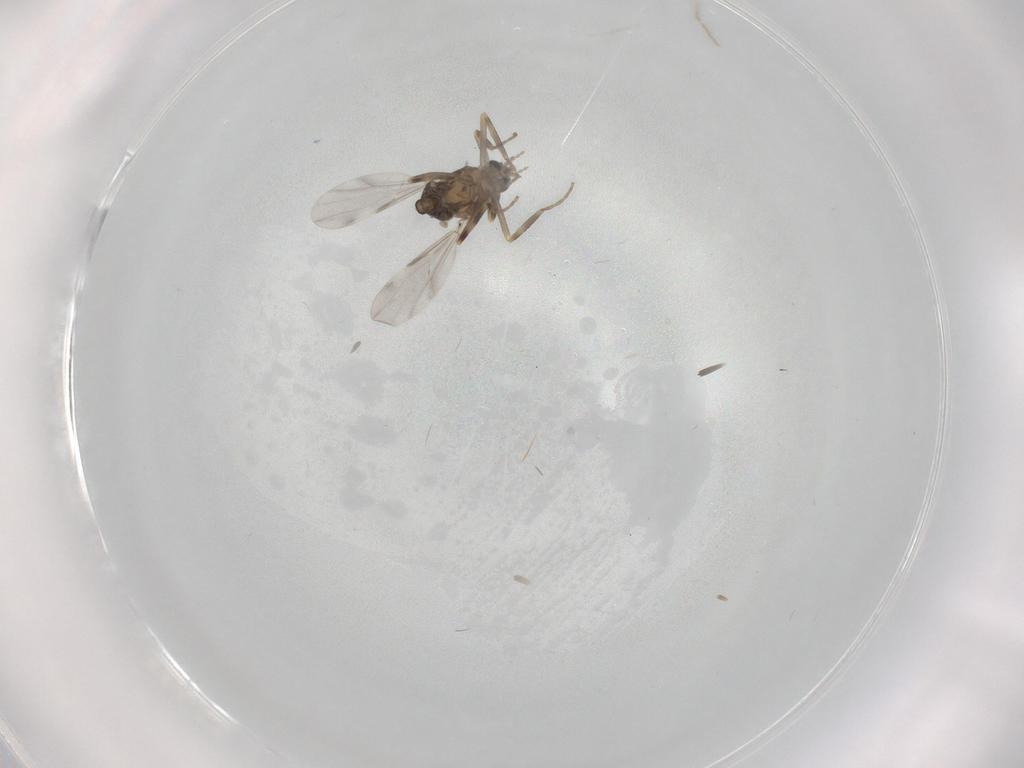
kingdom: Animalia
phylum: Arthropoda
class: Insecta
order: Diptera
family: Ceratopogonidae
